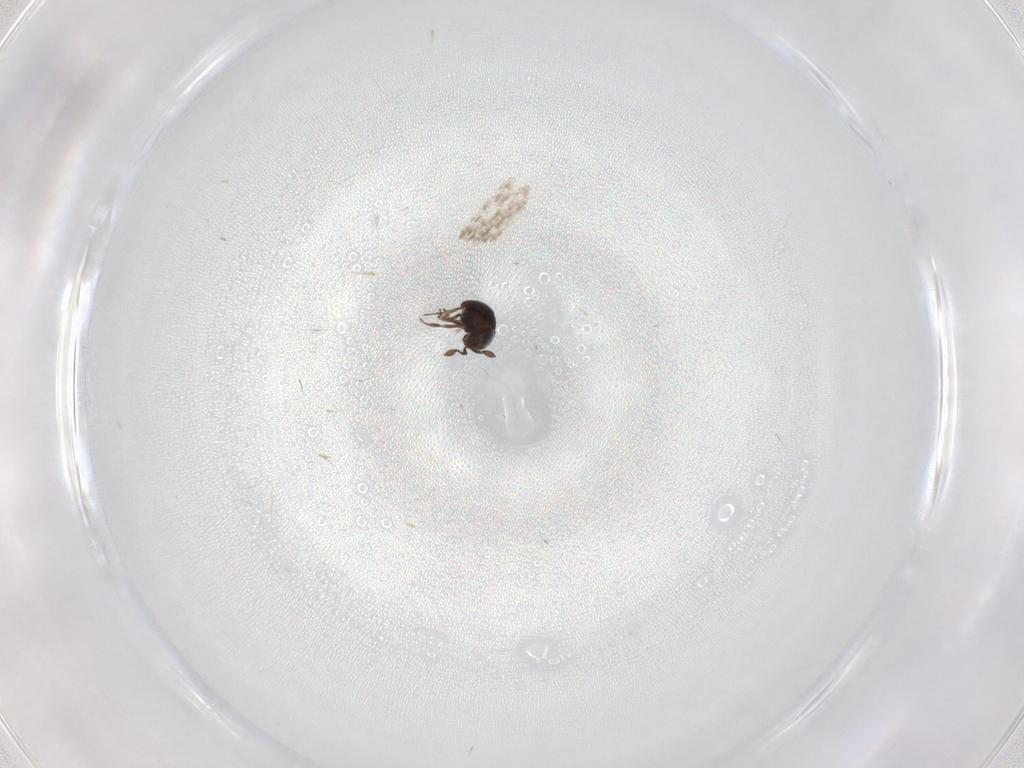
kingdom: Animalia
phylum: Arthropoda
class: Insecta
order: Hymenoptera
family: Scelionidae
